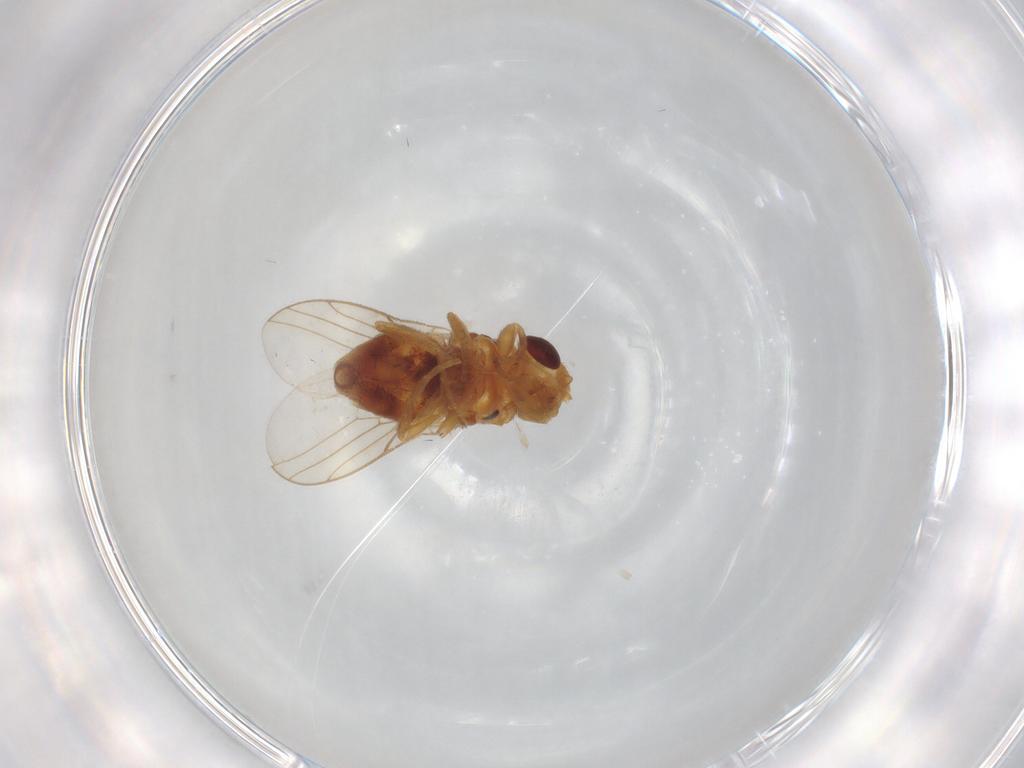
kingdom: Animalia
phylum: Arthropoda
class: Insecta
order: Diptera
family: Chloropidae
